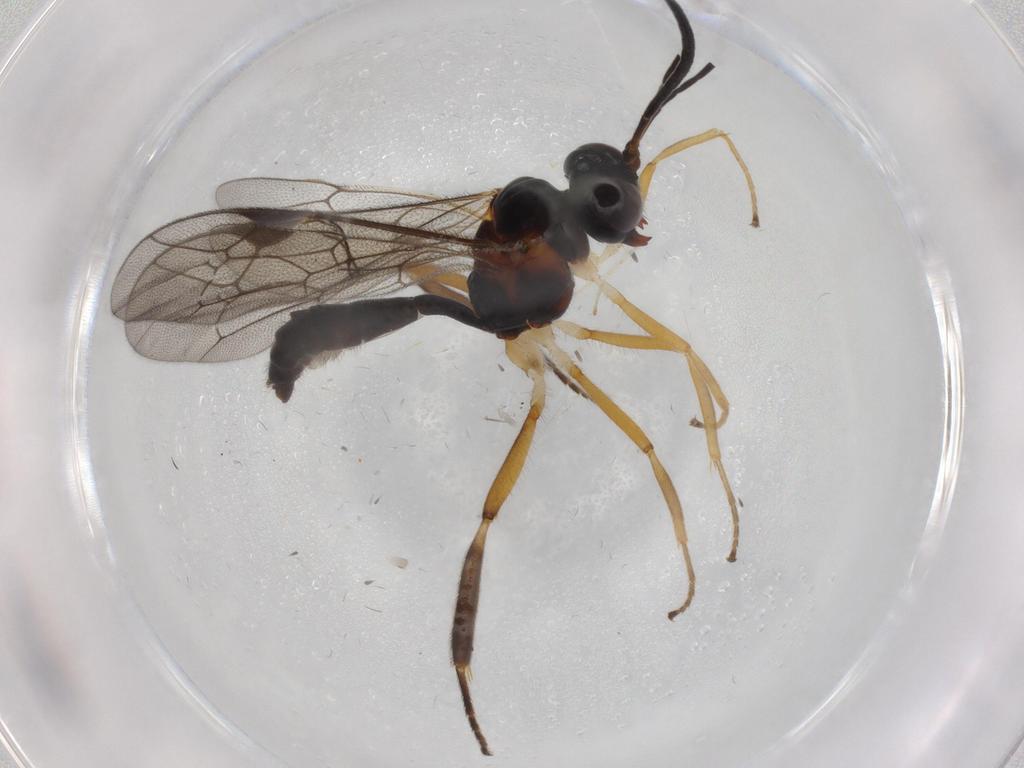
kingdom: Animalia
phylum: Arthropoda
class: Insecta
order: Hymenoptera
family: Proctotrupidae
